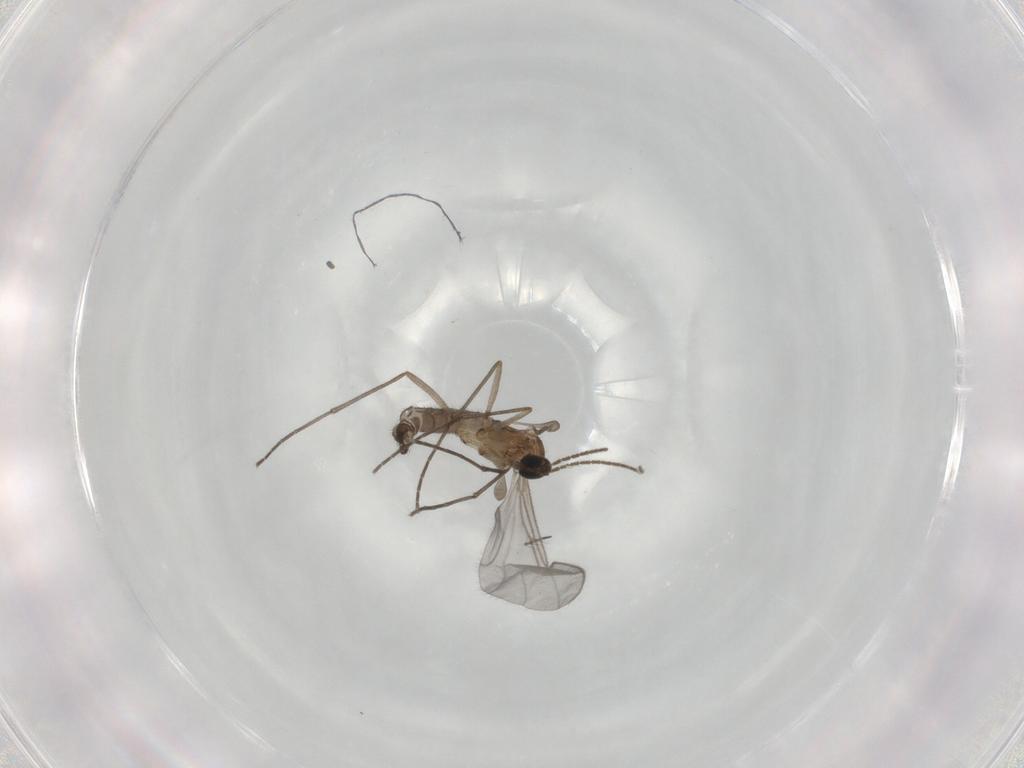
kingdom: Animalia
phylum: Arthropoda
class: Insecta
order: Diptera
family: Sciaridae
